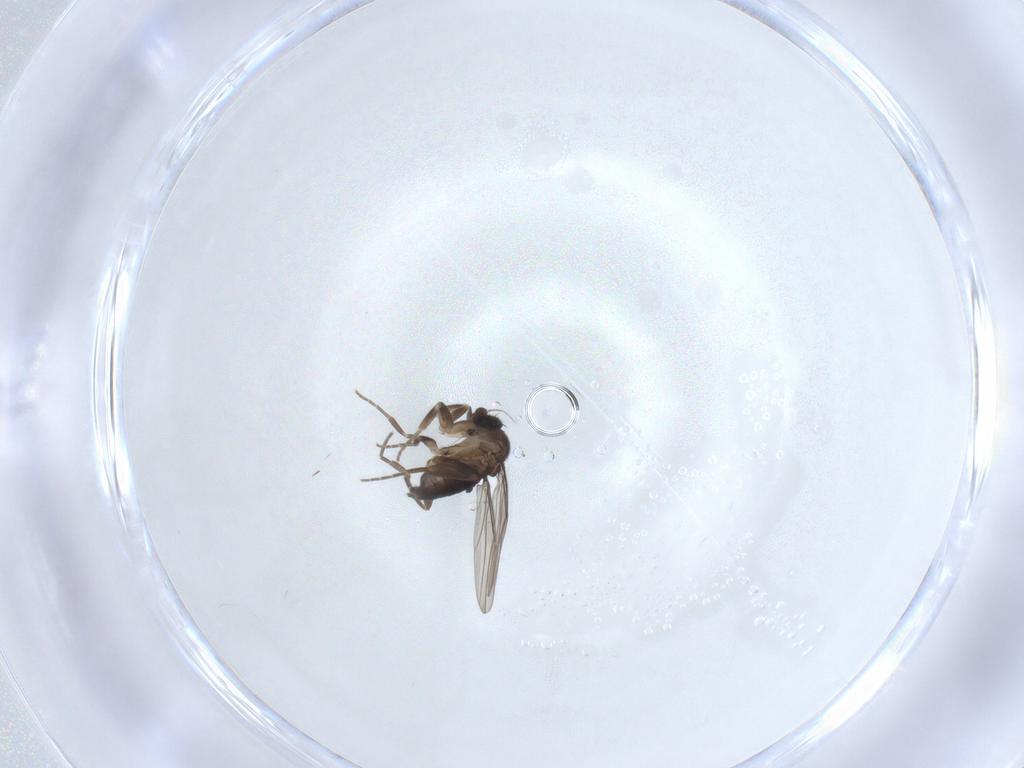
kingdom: Animalia
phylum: Arthropoda
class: Insecta
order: Diptera
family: Phoridae
